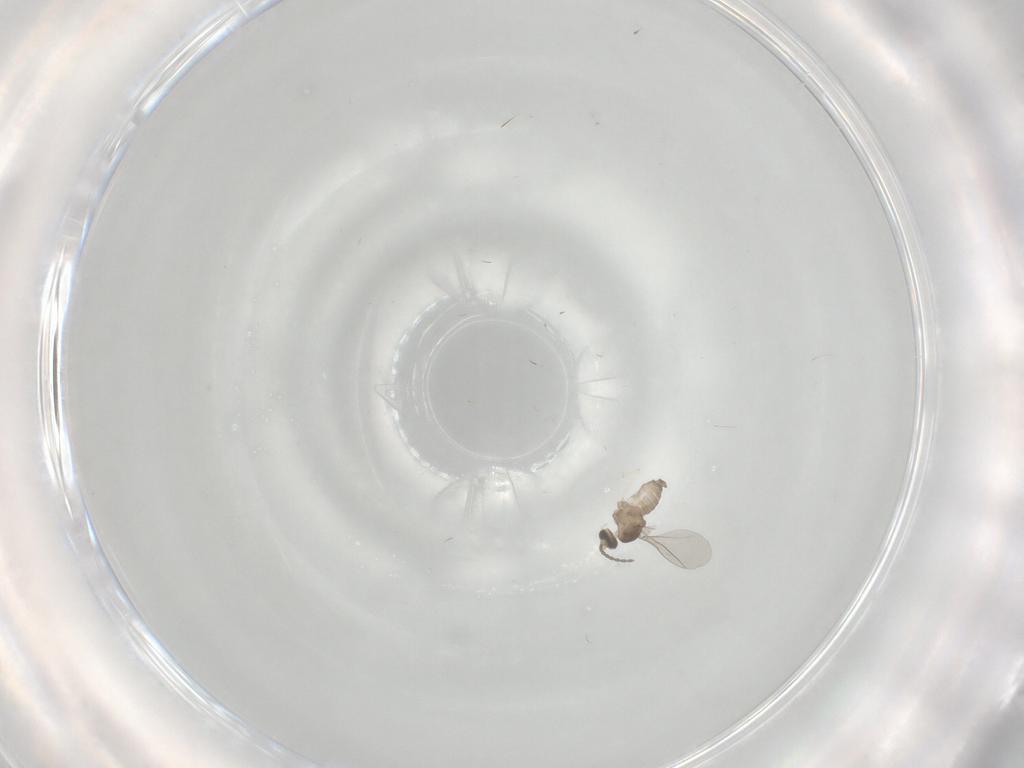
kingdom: Animalia
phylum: Arthropoda
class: Insecta
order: Diptera
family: Cecidomyiidae
